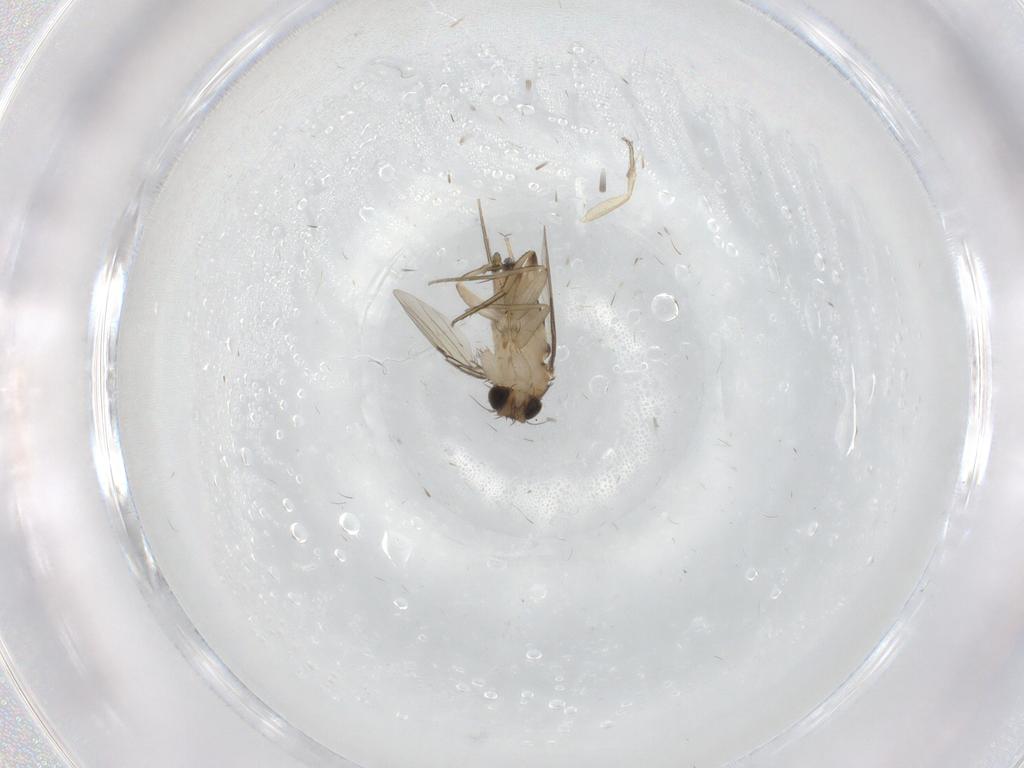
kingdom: Animalia
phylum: Arthropoda
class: Insecta
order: Diptera
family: Phoridae
